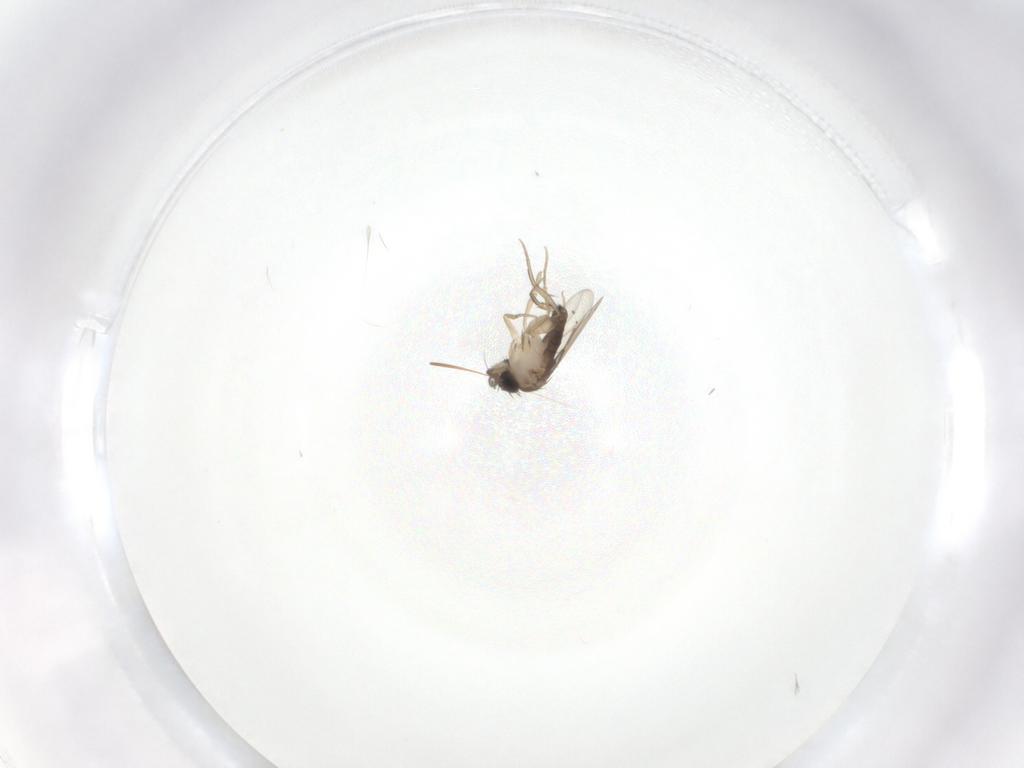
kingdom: Animalia
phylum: Arthropoda
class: Insecta
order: Diptera
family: Phoridae
